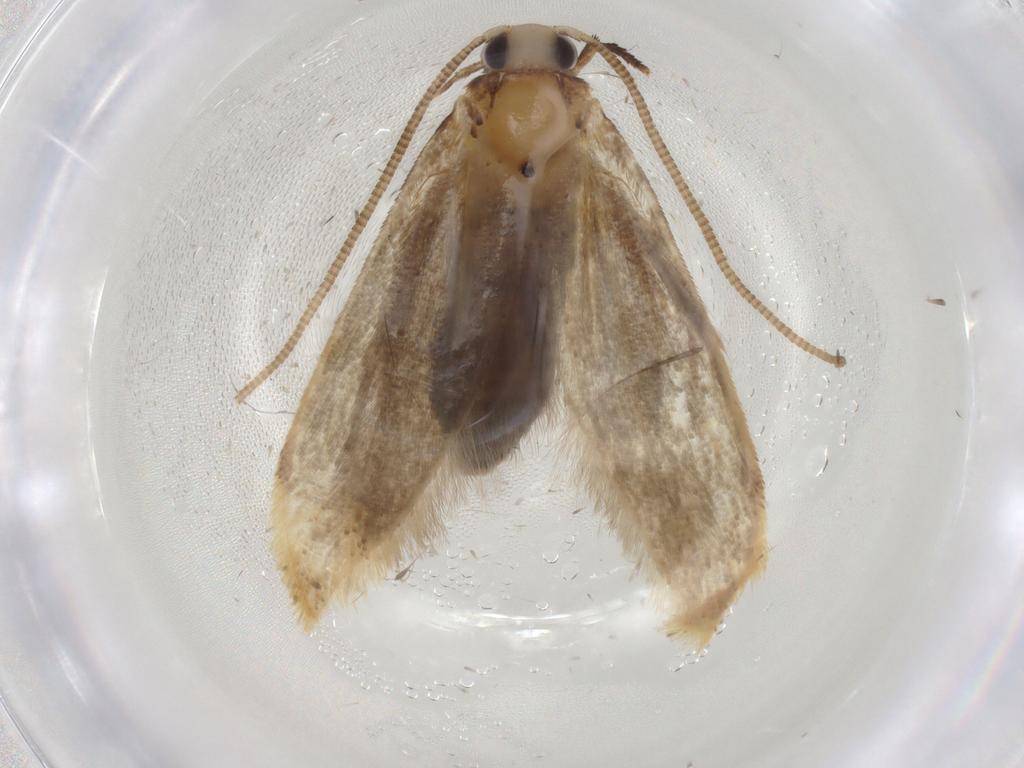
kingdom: Animalia
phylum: Arthropoda
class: Insecta
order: Lepidoptera
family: Tineidae
